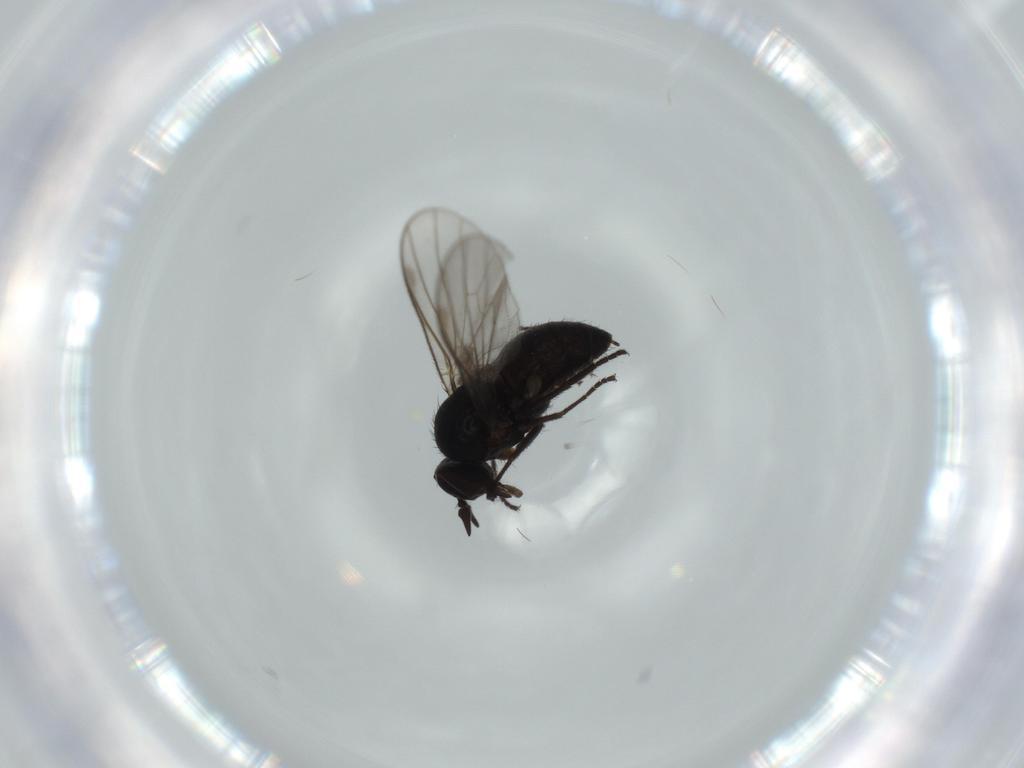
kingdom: Animalia
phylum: Arthropoda
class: Insecta
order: Diptera
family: Psychodidae
